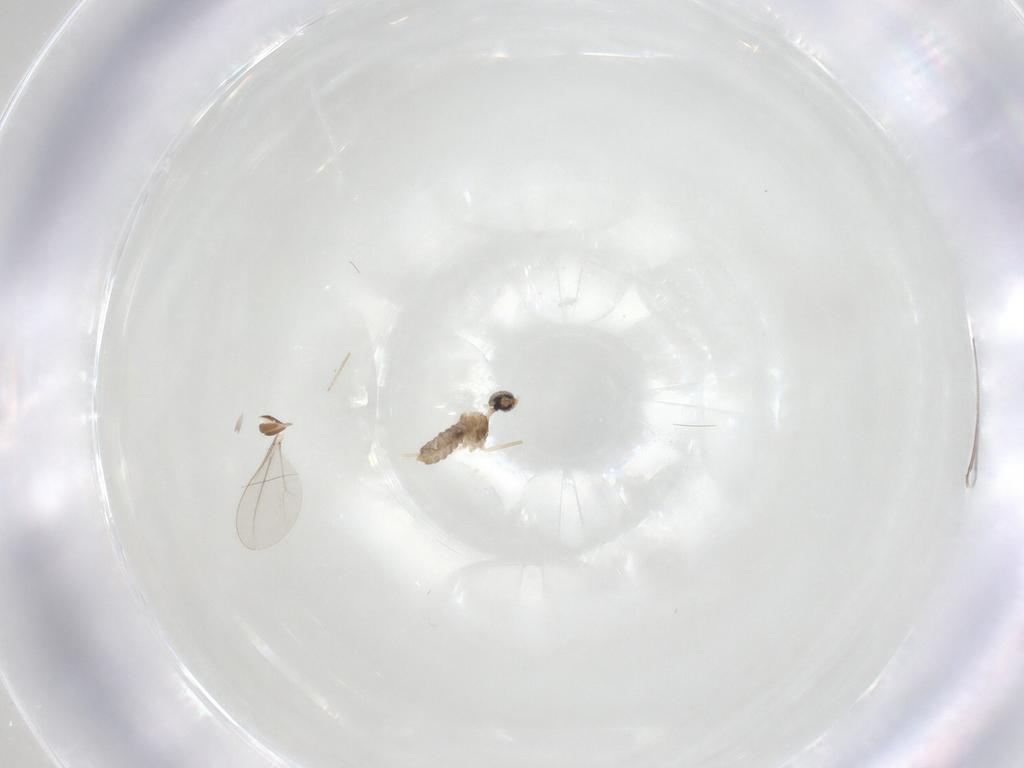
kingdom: Animalia
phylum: Arthropoda
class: Insecta
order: Diptera
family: Cecidomyiidae
